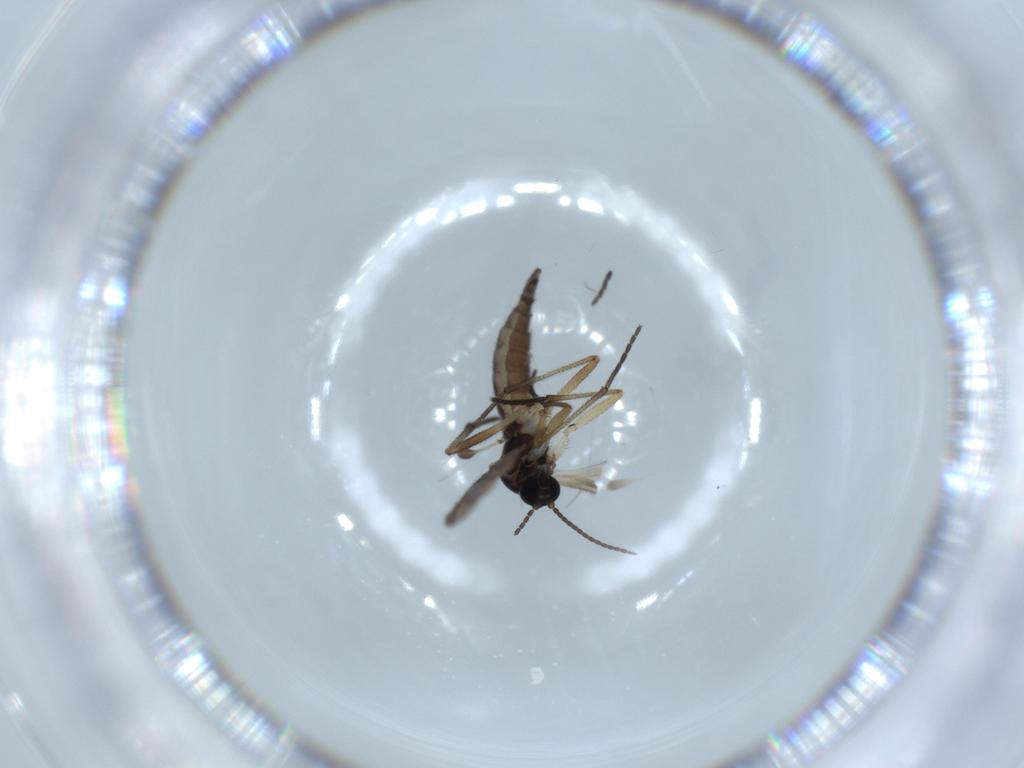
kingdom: Animalia
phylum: Arthropoda
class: Insecta
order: Diptera
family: Sciaridae
